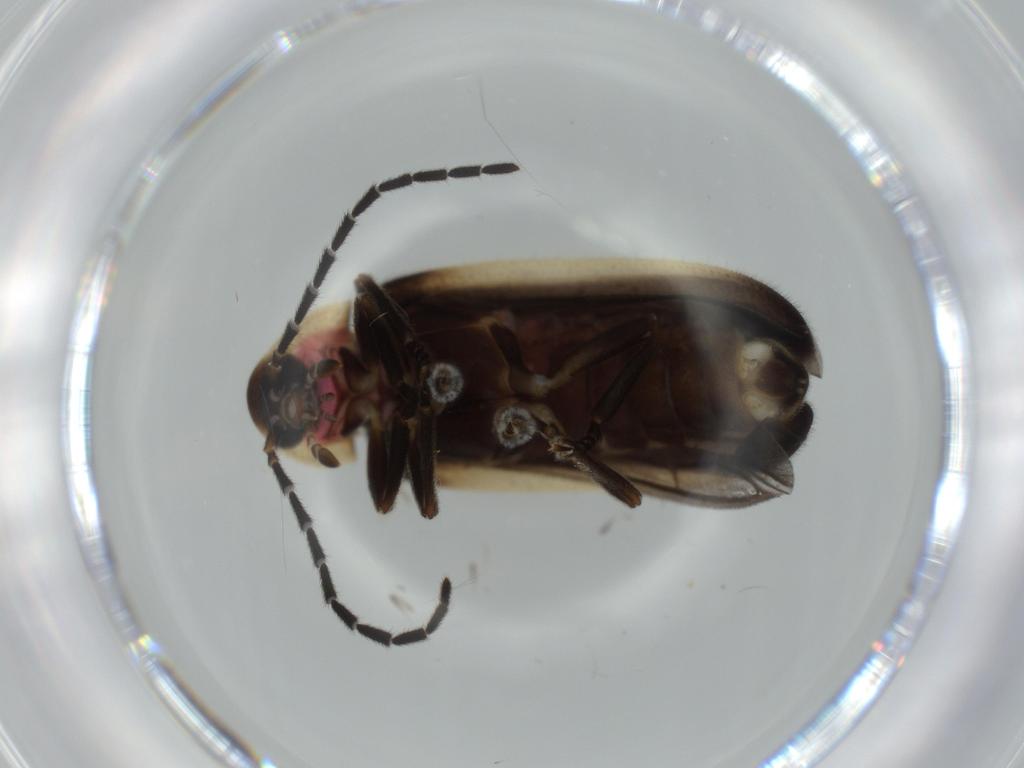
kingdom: Animalia
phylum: Arthropoda
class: Insecta
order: Coleoptera
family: Lampyridae
